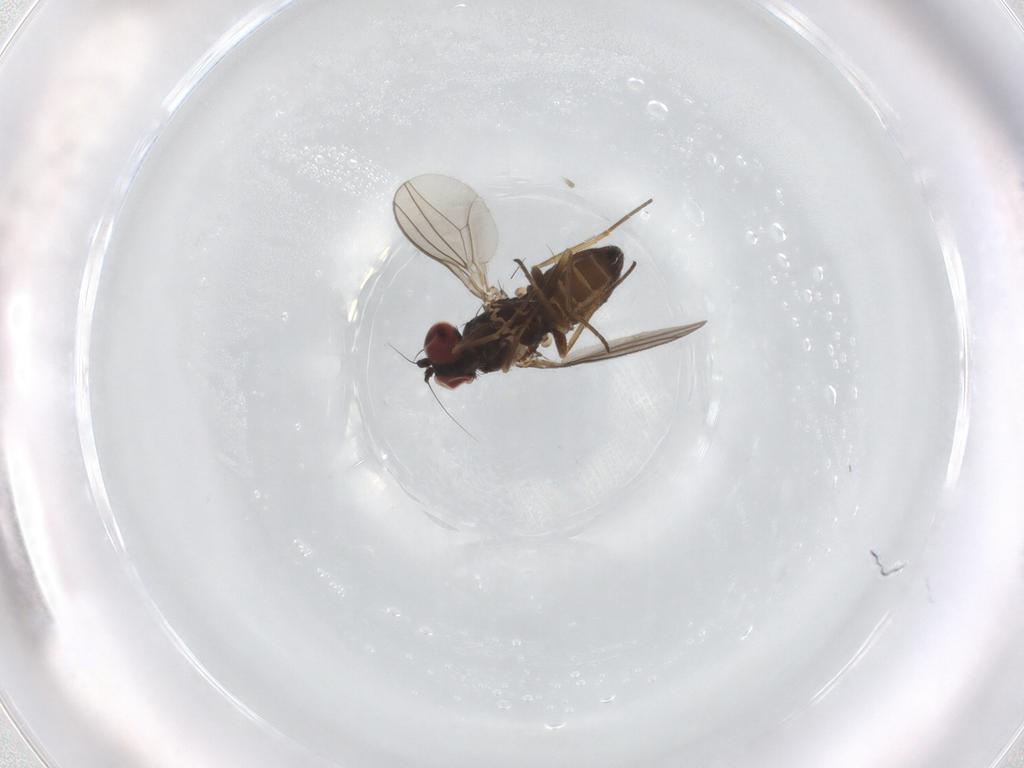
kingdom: Animalia
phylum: Arthropoda
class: Insecta
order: Diptera
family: Dolichopodidae
